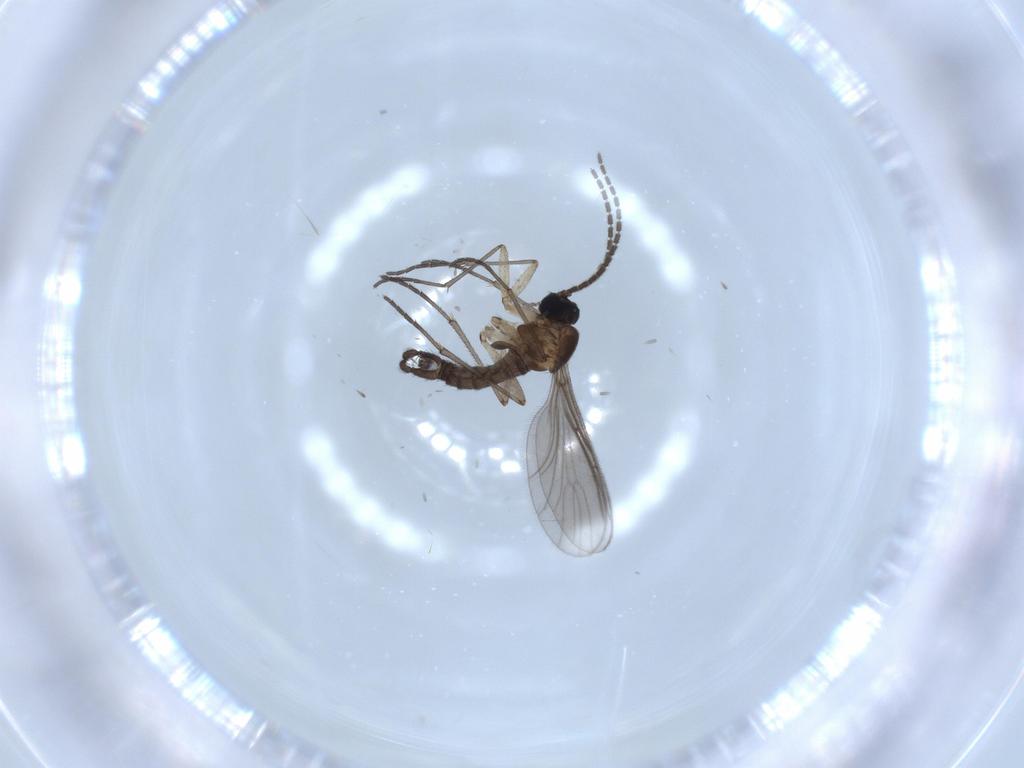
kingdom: Animalia
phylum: Arthropoda
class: Insecta
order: Diptera
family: Sciaridae
